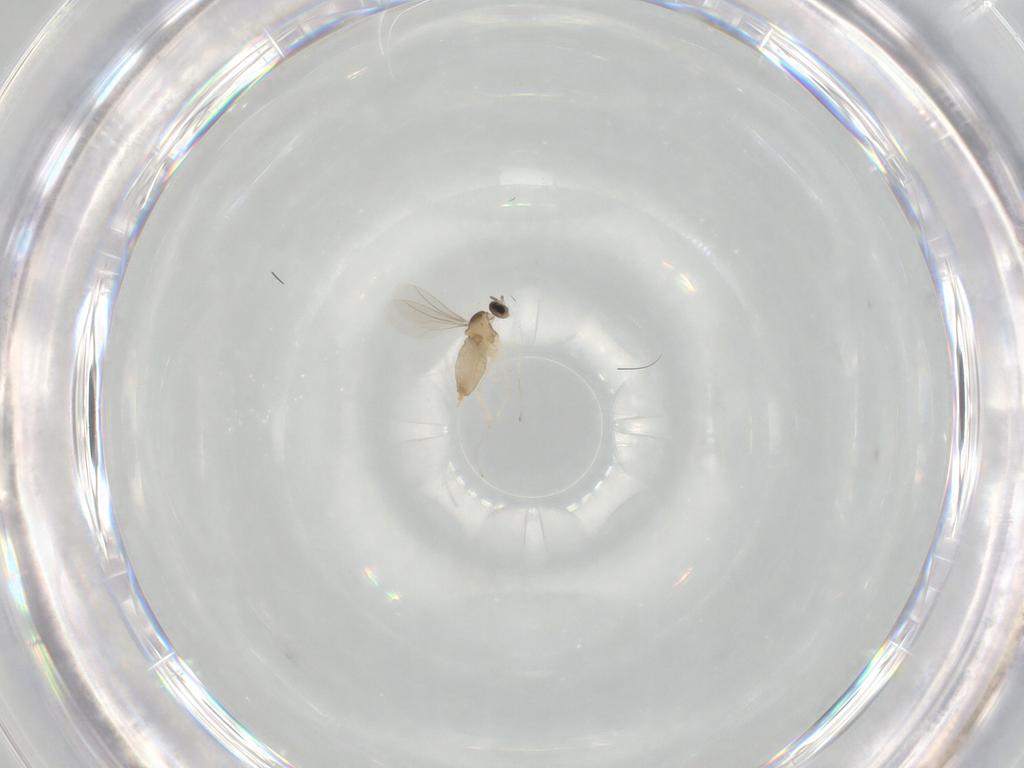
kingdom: Animalia
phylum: Arthropoda
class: Insecta
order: Diptera
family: Cecidomyiidae
